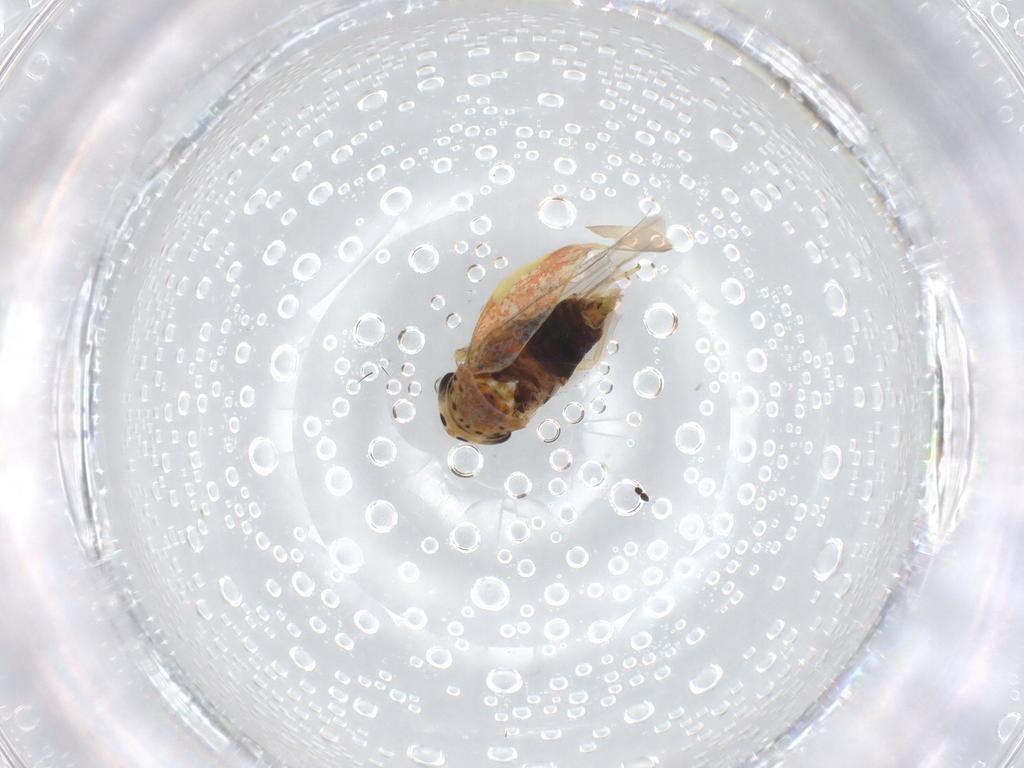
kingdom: Animalia
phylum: Arthropoda
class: Insecta
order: Hemiptera
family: Cicadellidae
